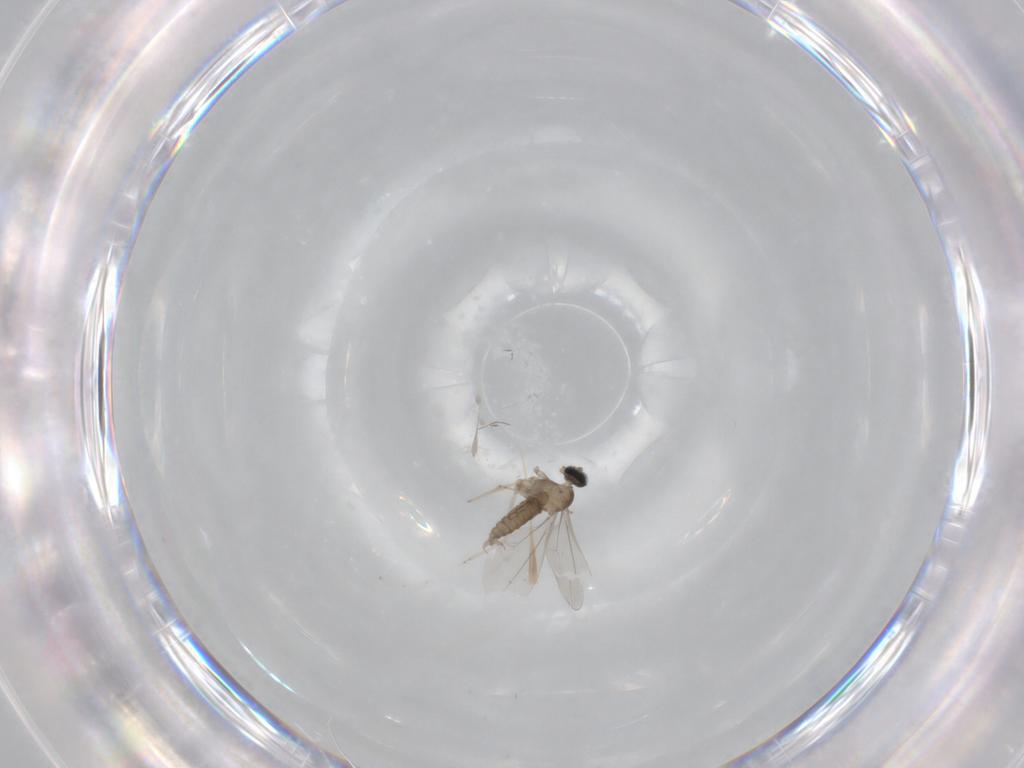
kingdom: Animalia
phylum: Arthropoda
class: Insecta
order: Diptera
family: Cecidomyiidae
